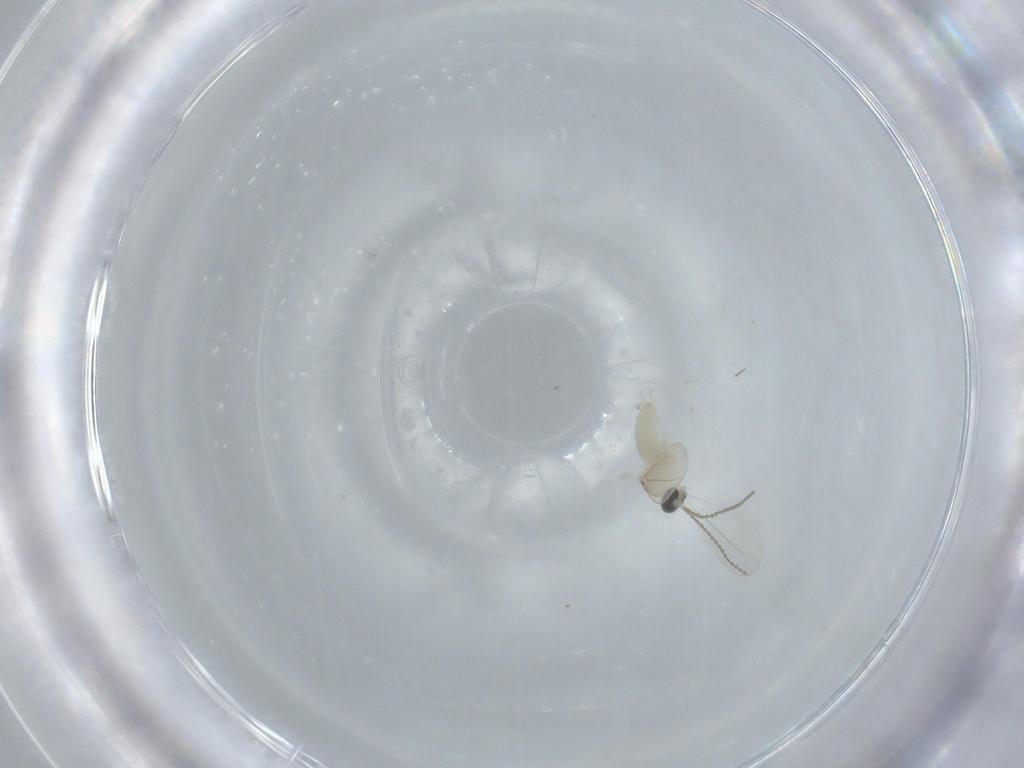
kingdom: Animalia
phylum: Arthropoda
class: Insecta
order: Diptera
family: Cecidomyiidae
